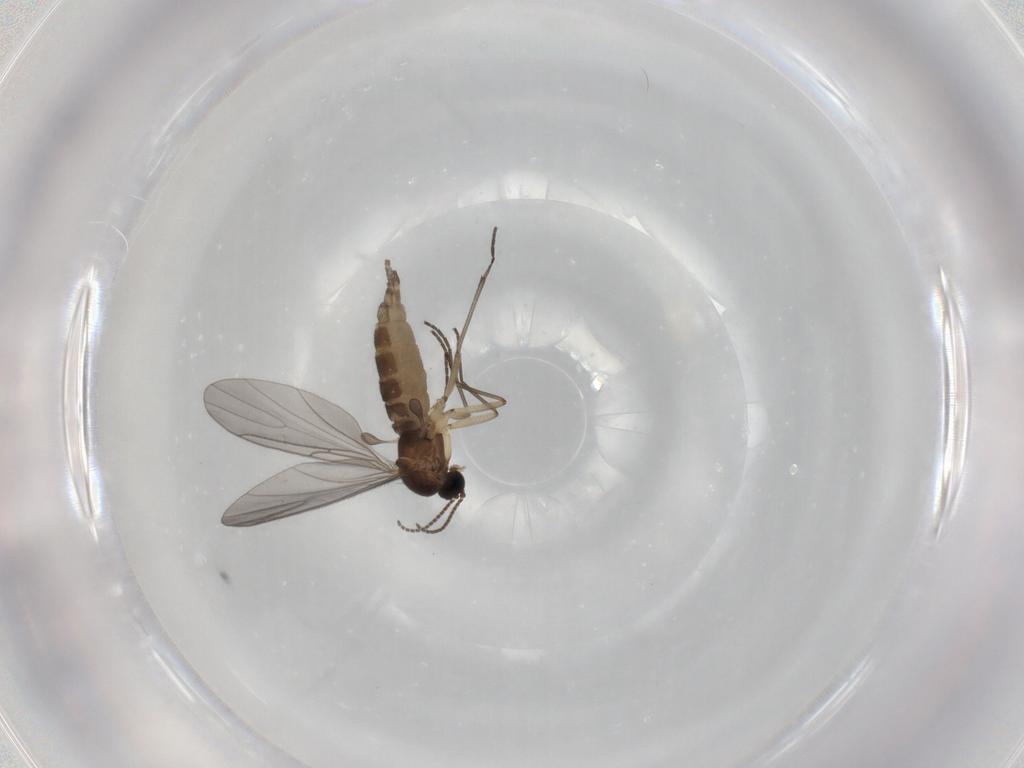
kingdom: Animalia
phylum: Arthropoda
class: Insecta
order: Diptera
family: Sciaridae
